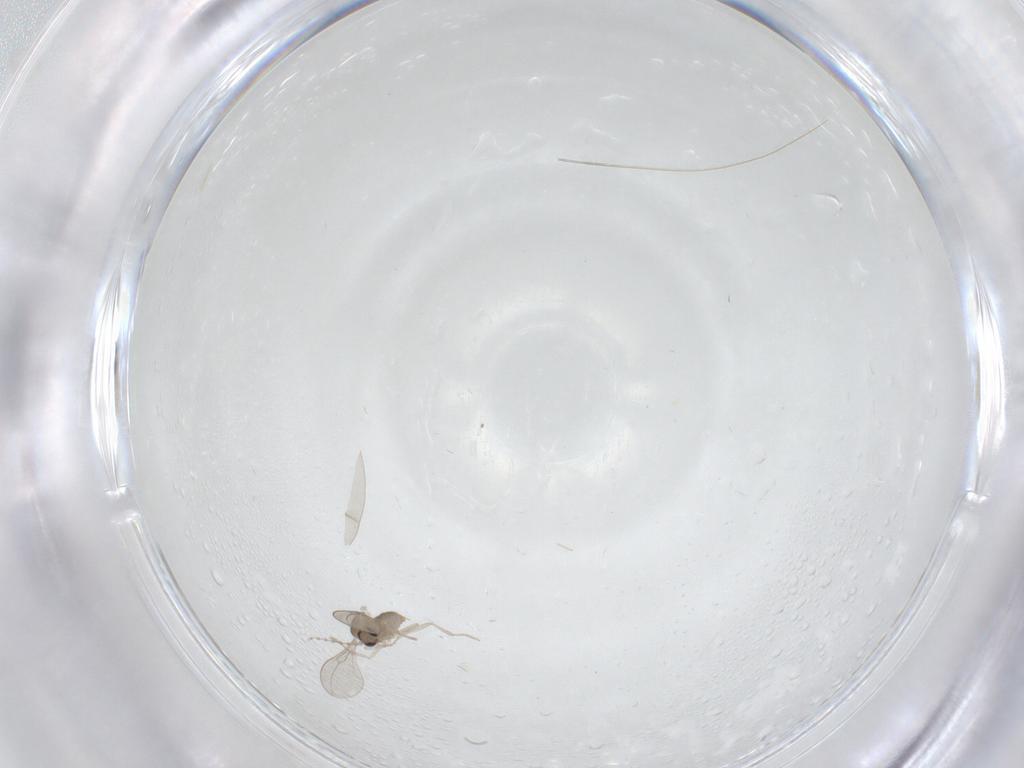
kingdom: Animalia
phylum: Arthropoda
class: Insecta
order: Diptera
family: Cecidomyiidae
